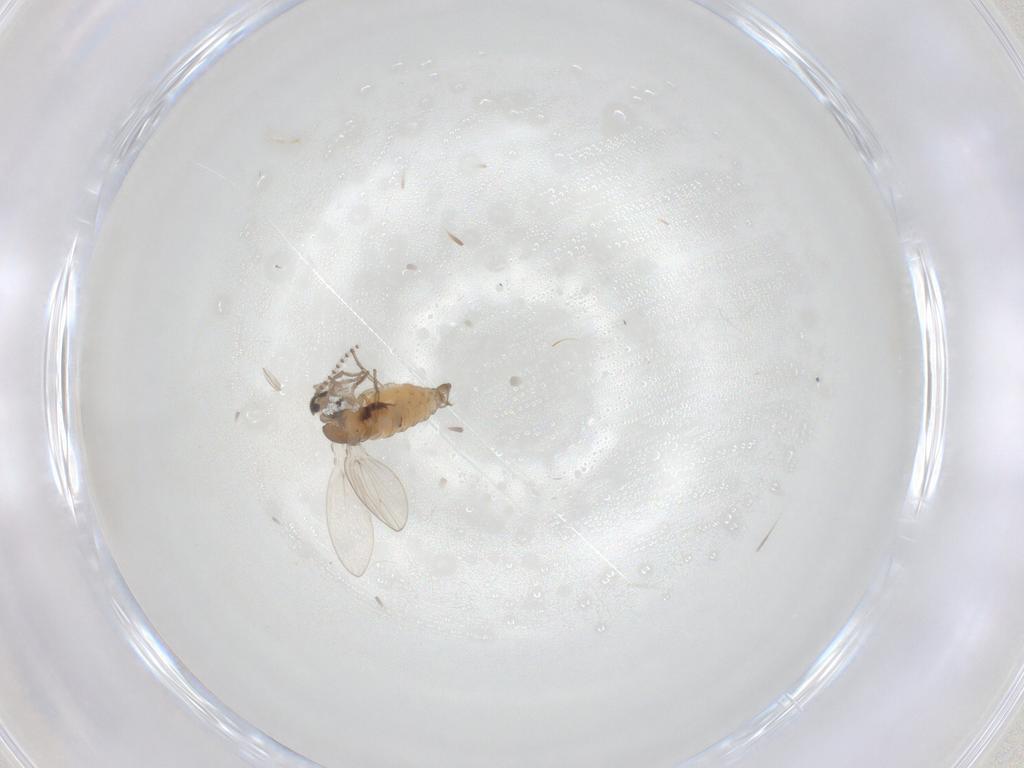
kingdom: Animalia
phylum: Arthropoda
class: Insecta
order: Diptera
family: Psychodidae
